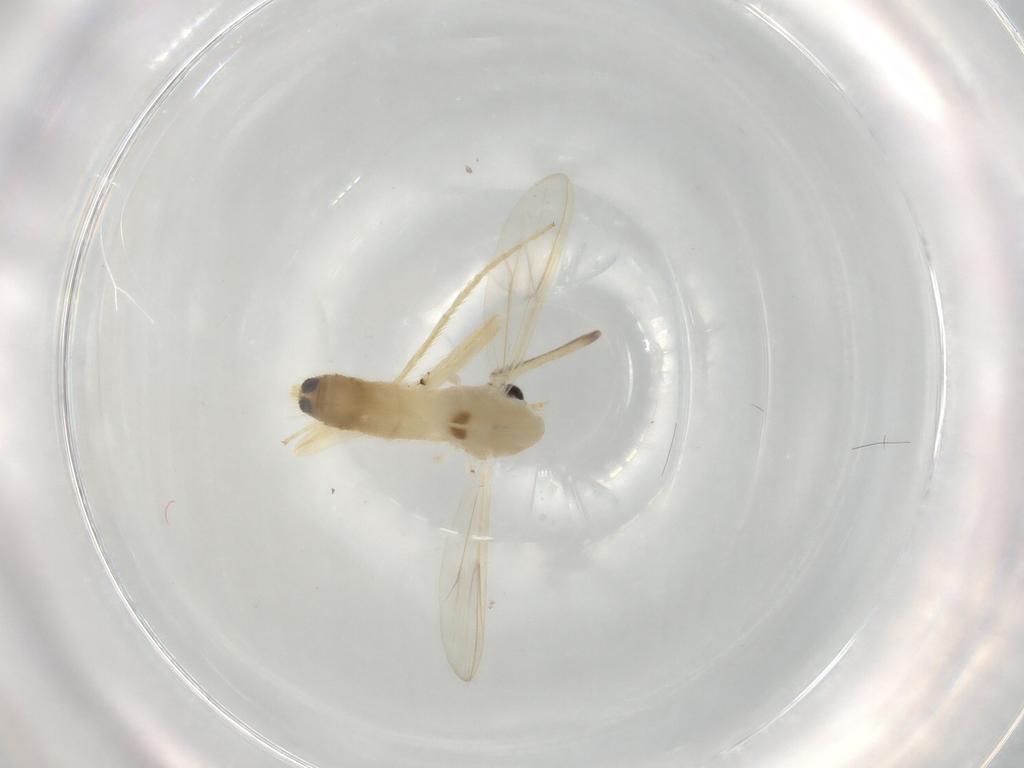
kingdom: Animalia
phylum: Arthropoda
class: Insecta
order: Diptera
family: Chironomidae
